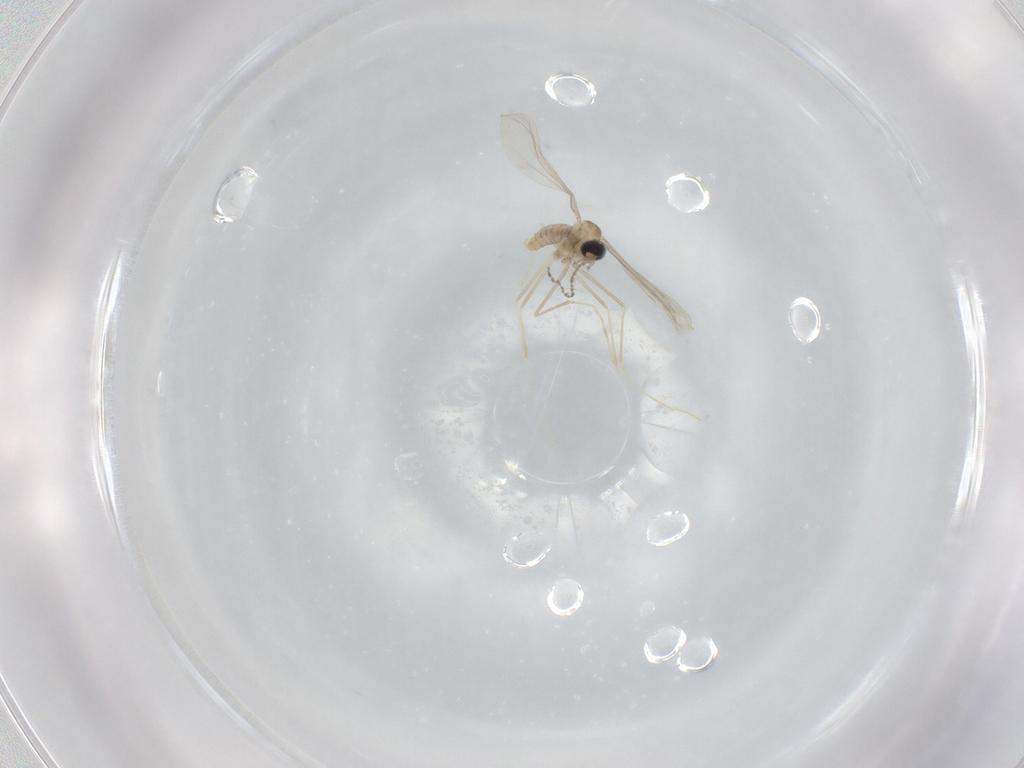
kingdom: Animalia
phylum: Arthropoda
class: Insecta
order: Diptera
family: Cecidomyiidae
